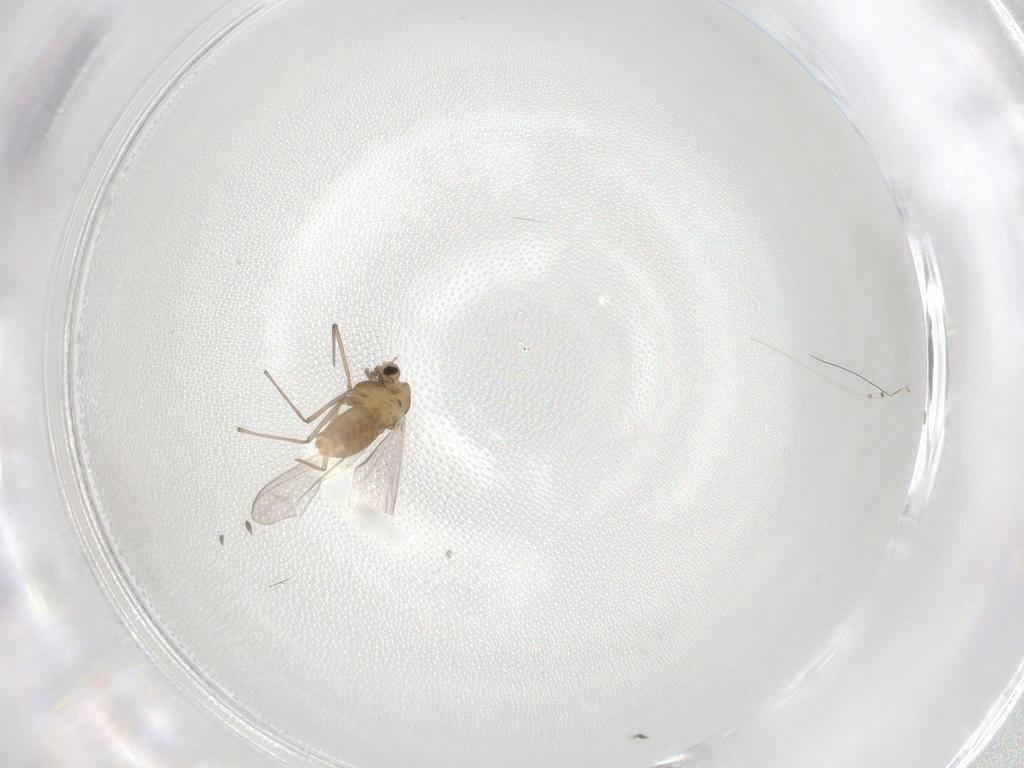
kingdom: Animalia
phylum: Arthropoda
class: Insecta
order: Diptera
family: Chironomidae
